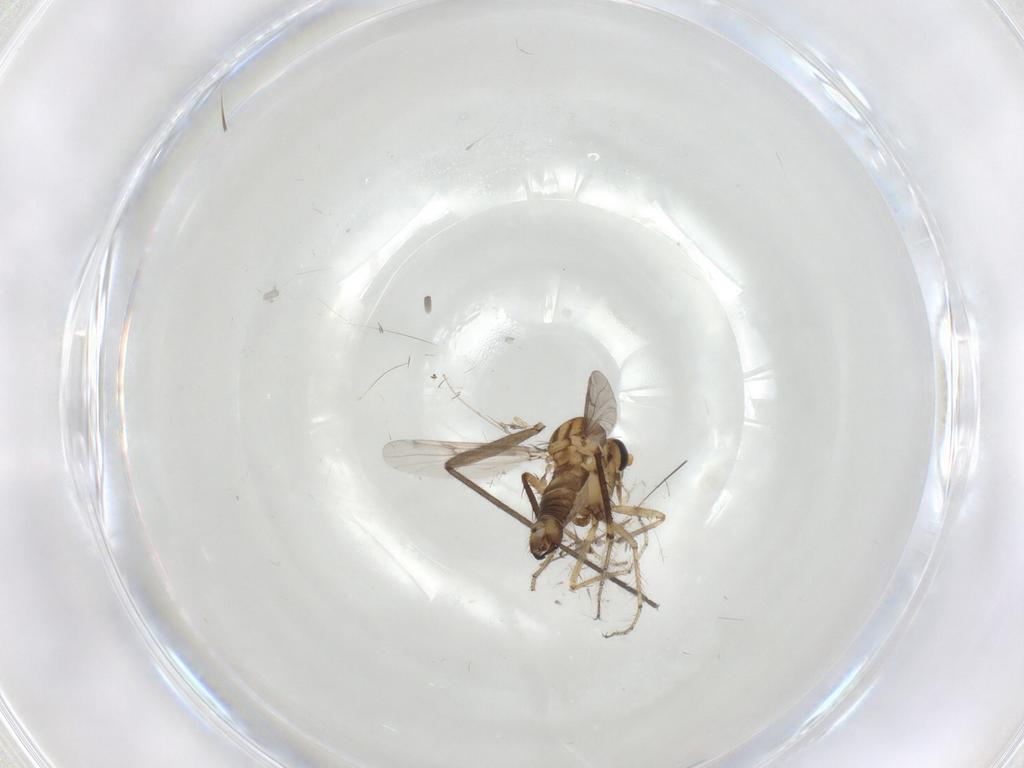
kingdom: Animalia
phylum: Arthropoda
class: Insecta
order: Diptera
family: Ceratopogonidae
